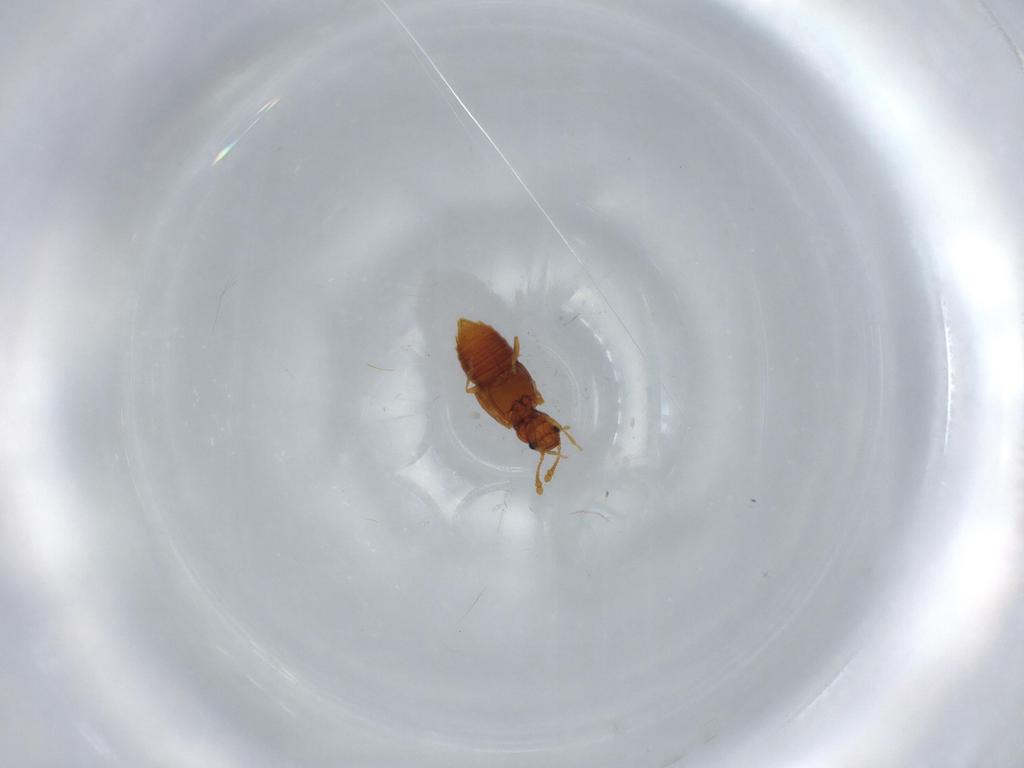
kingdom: Animalia
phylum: Arthropoda
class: Insecta
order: Coleoptera
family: Staphylinidae
